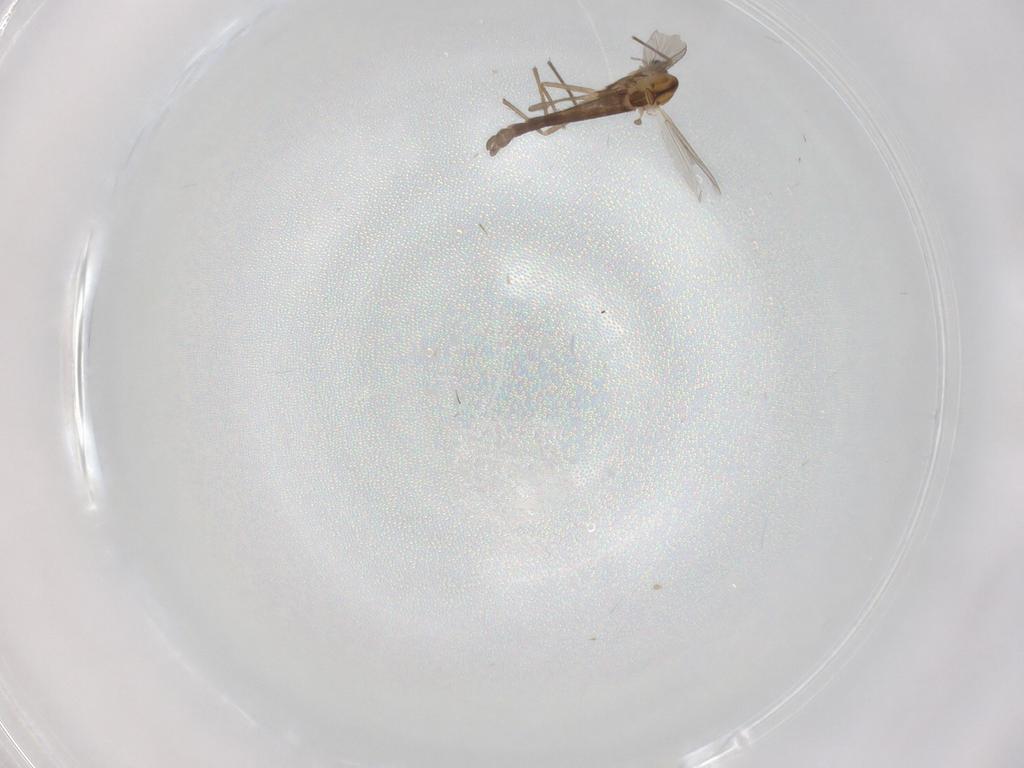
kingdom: Animalia
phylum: Arthropoda
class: Insecta
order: Diptera
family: Chironomidae
